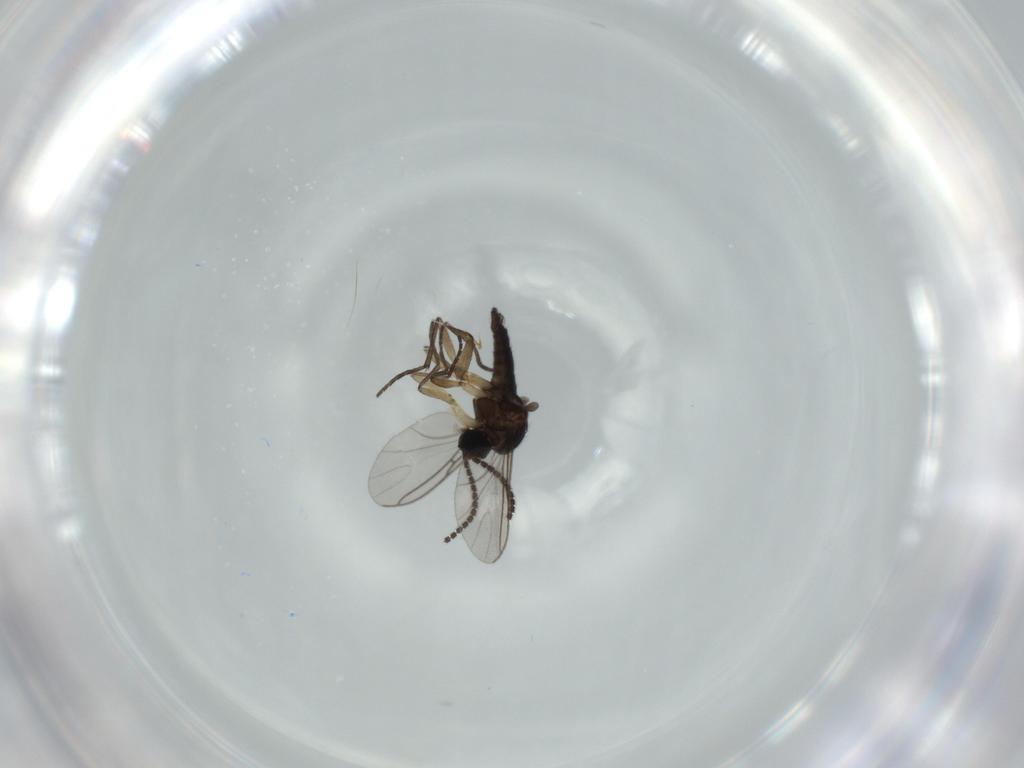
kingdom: Animalia
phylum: Arthropoda
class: Insecta
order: Diptera
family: Sciaridae
